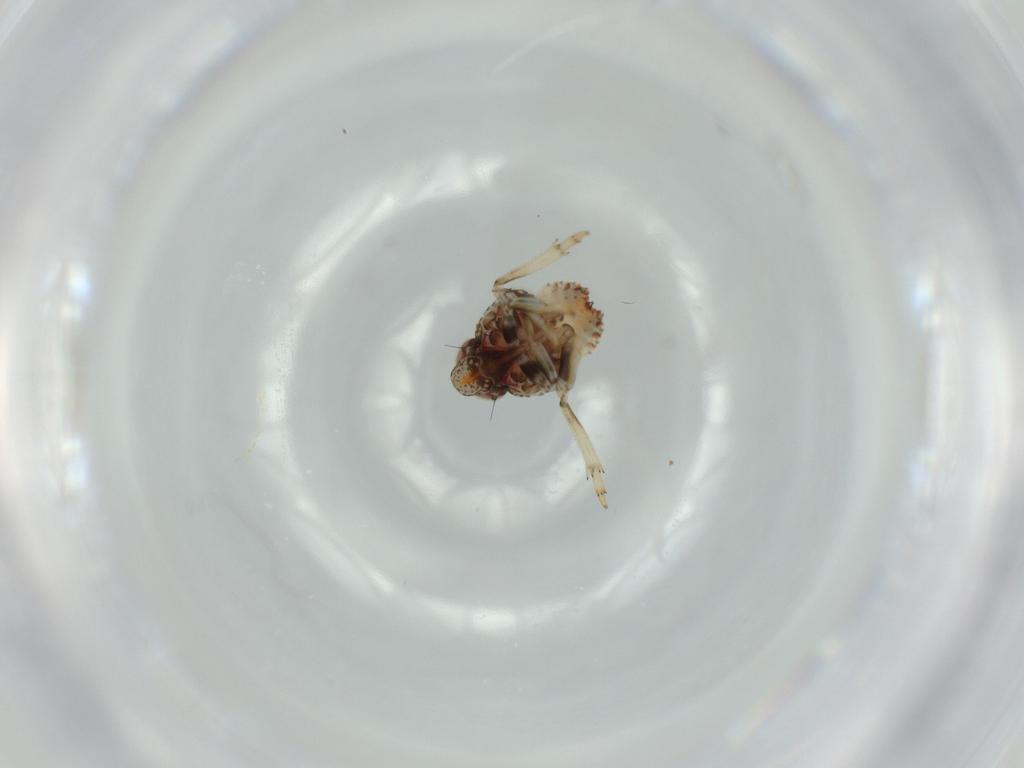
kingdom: Animalia
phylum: Arthropoda
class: Insecta
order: Hemiptera
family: Issidae
